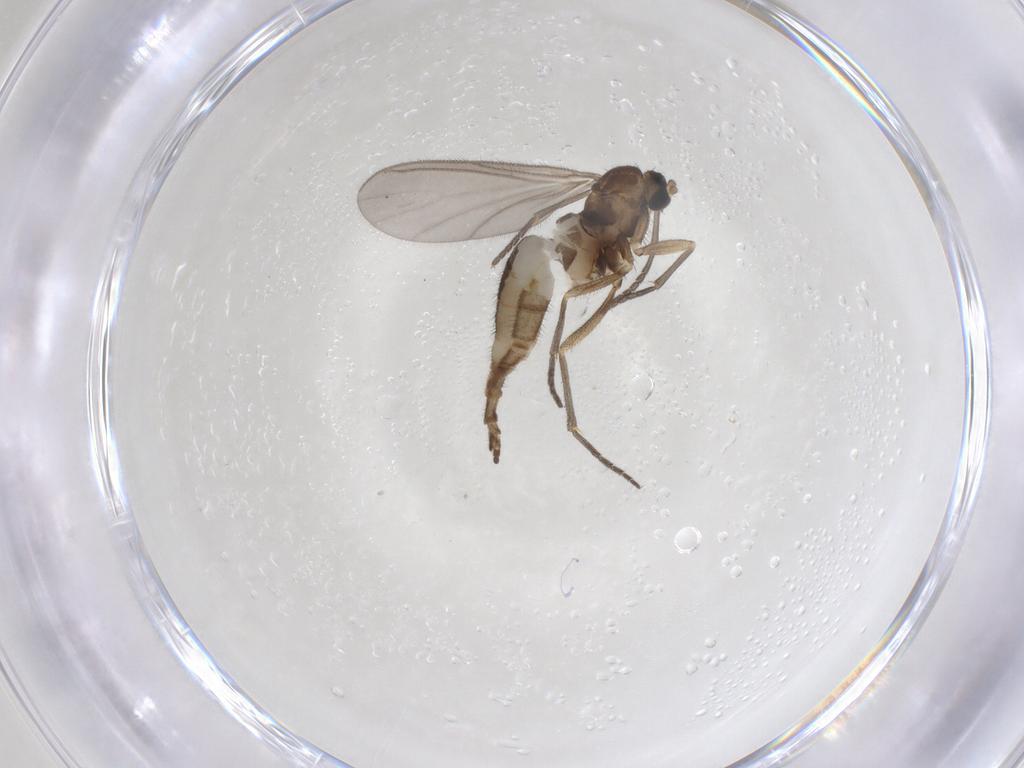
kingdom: Animalia
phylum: Arthropoda
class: Insecta
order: Diptera
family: Sciaridae
